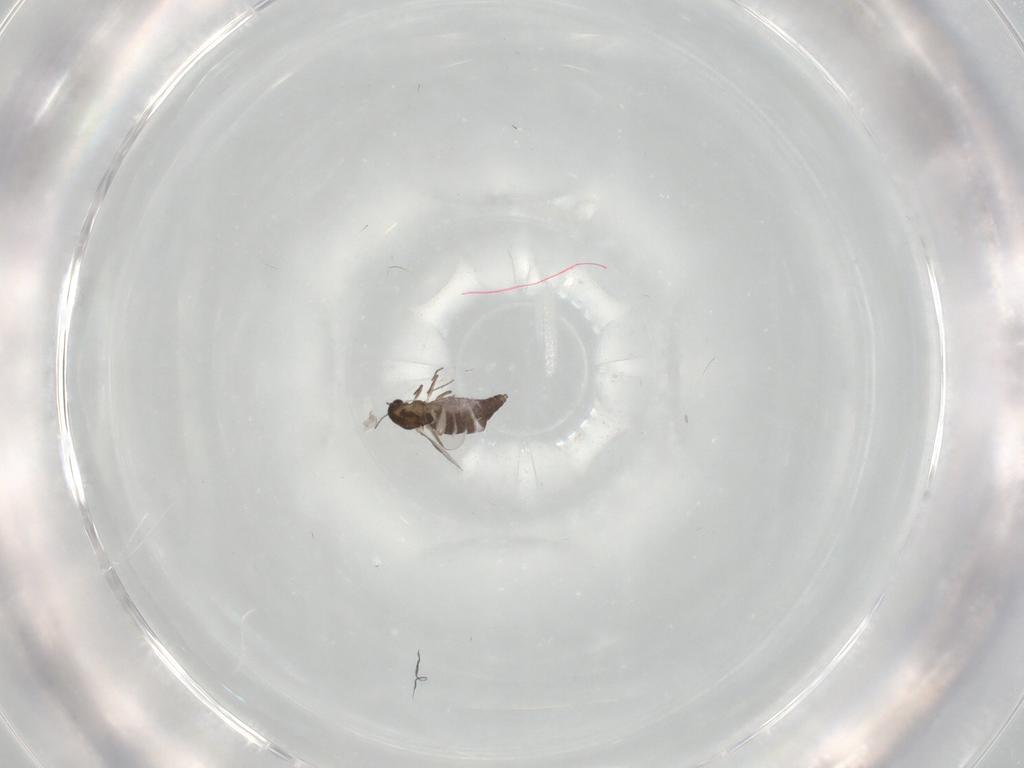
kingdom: Animalia
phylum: Arthropoda
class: Insecta
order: Diptera
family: Chironomidae
